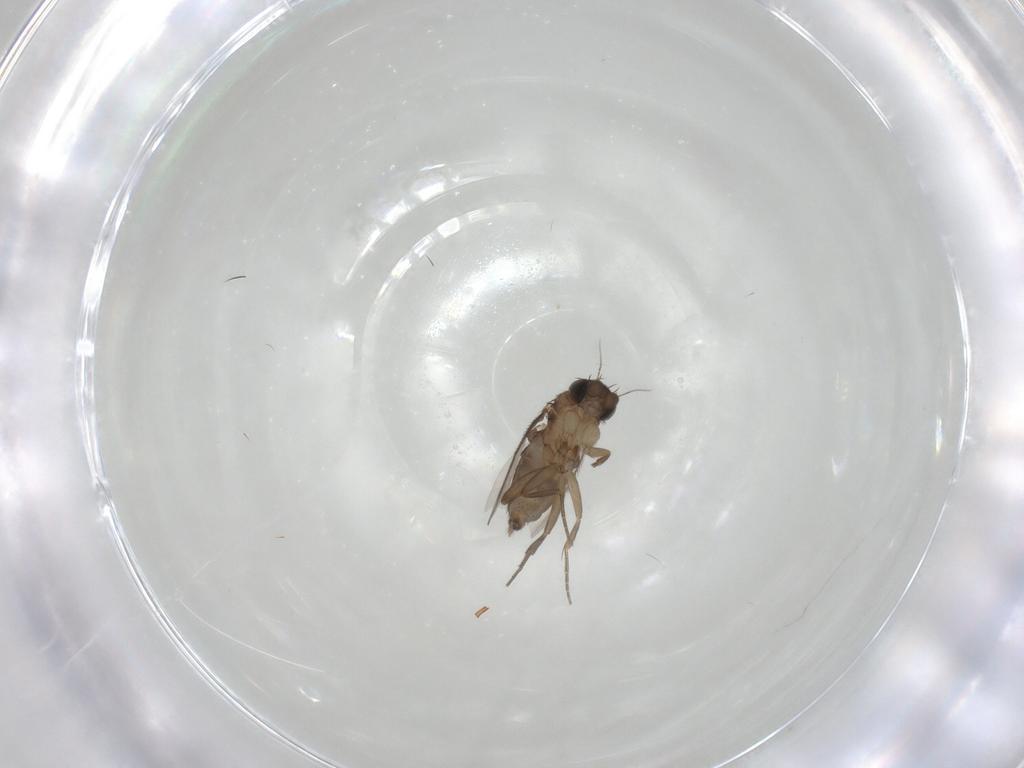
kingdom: Animalia
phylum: Arthropoda
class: Insecta
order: Diptera
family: Phoridae
